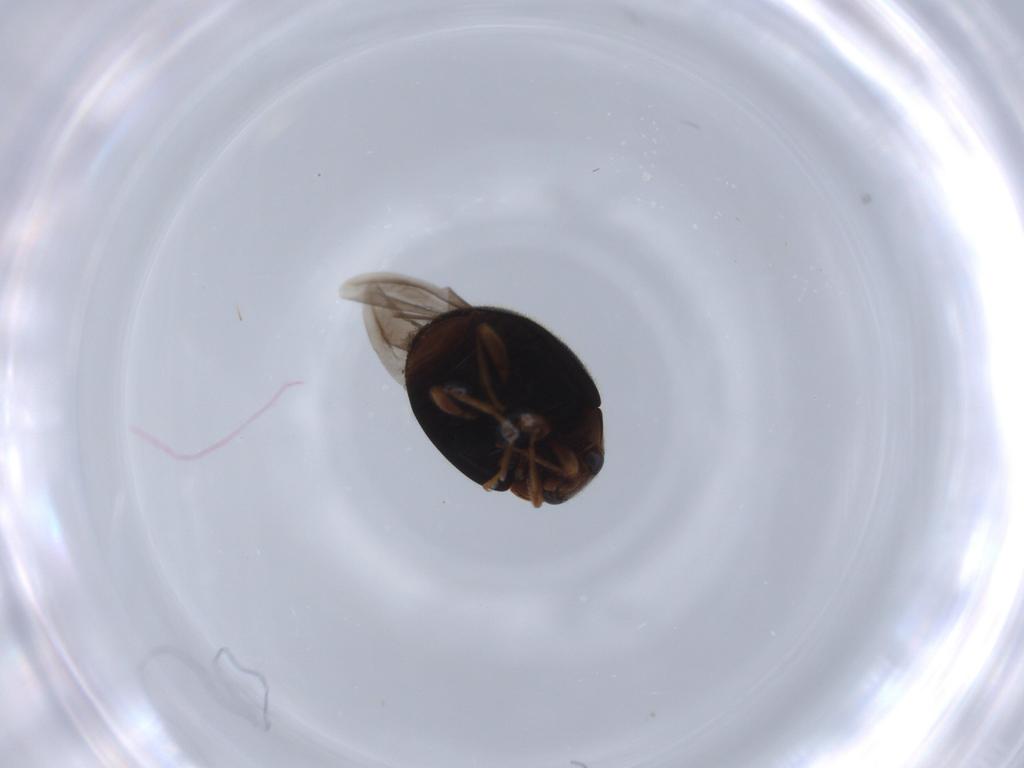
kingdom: Animalia
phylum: Arthropoda
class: Insecta
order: Coleoptera
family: Coccinellidae
